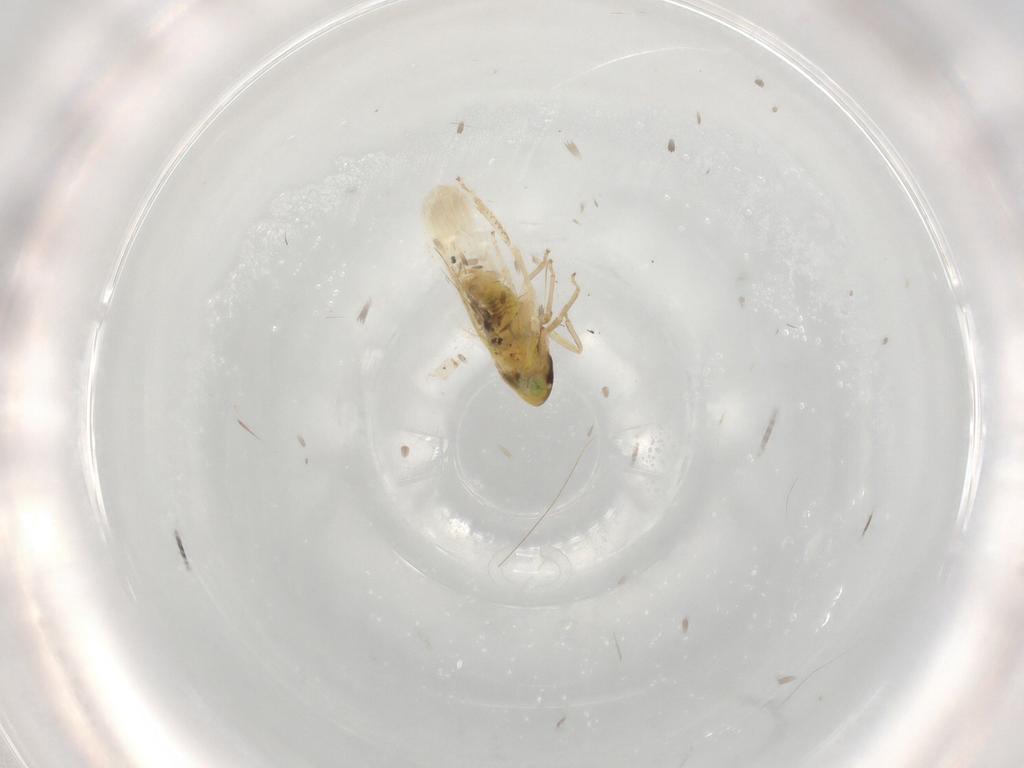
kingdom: Animalia
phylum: Arthropoda
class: Insecta
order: Hemiptera
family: Cicadellidae
